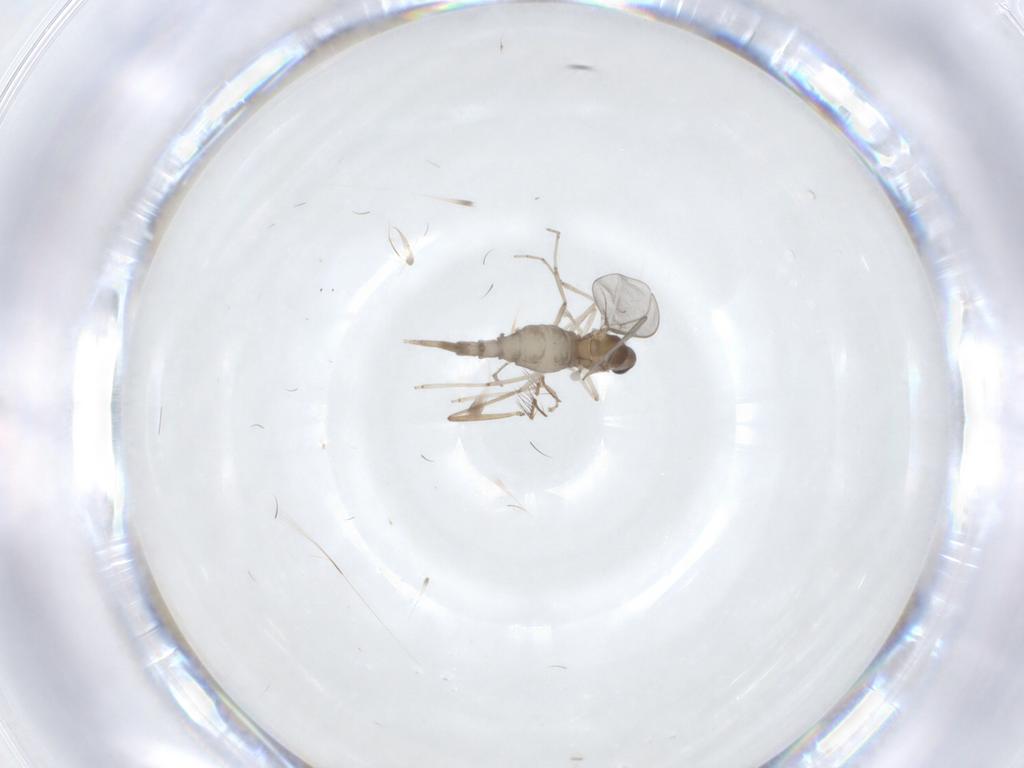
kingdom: Animalia
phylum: Arthropoda
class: Insecta
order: Diptera
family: Cecidomyiidae
